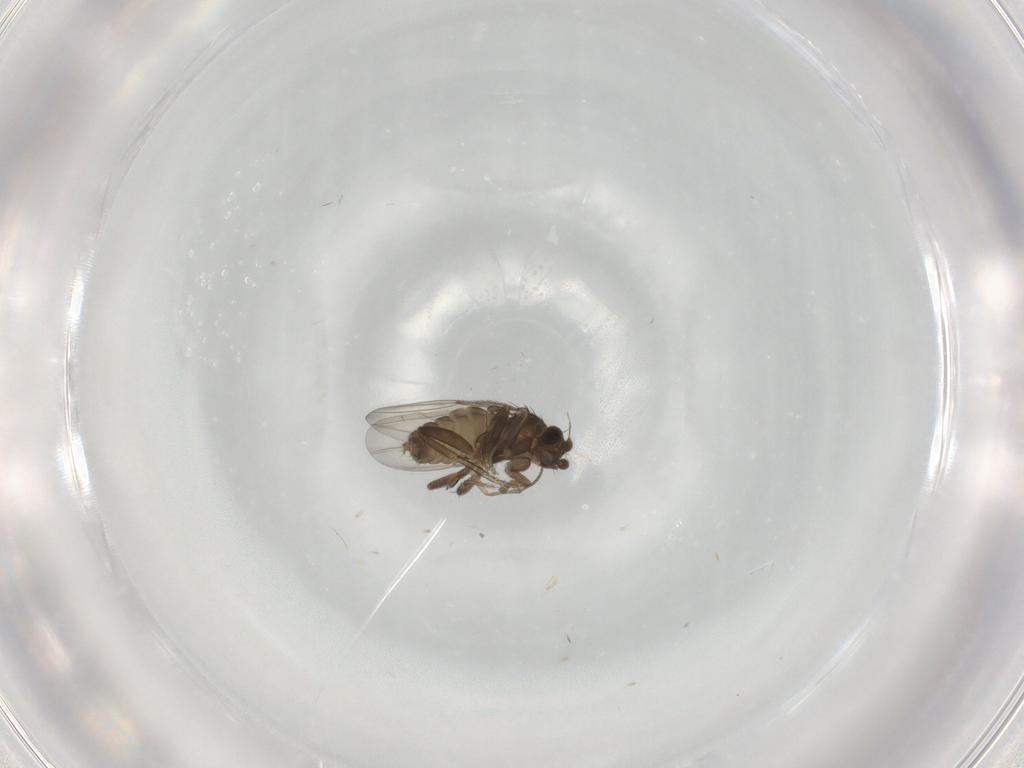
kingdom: Animalia
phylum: Arthropoda
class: Insecta
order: Diptera
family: Phoridae
